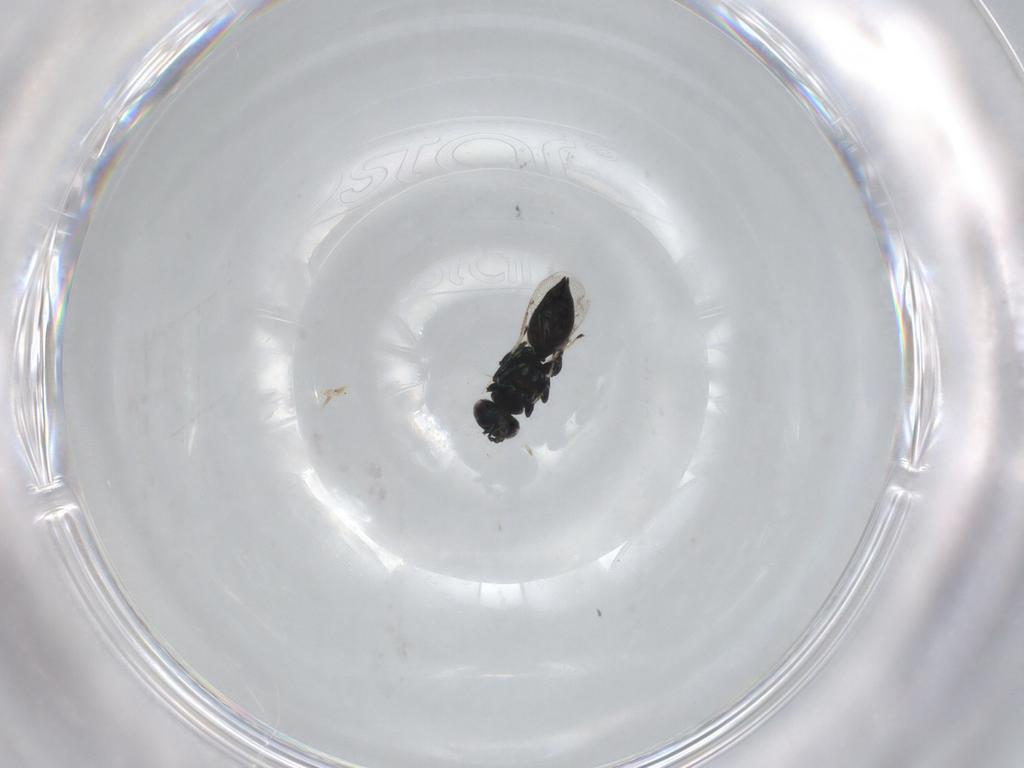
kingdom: Animalia
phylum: Arthropoda
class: Insecta
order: Hymenoptera
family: Eulophidae
